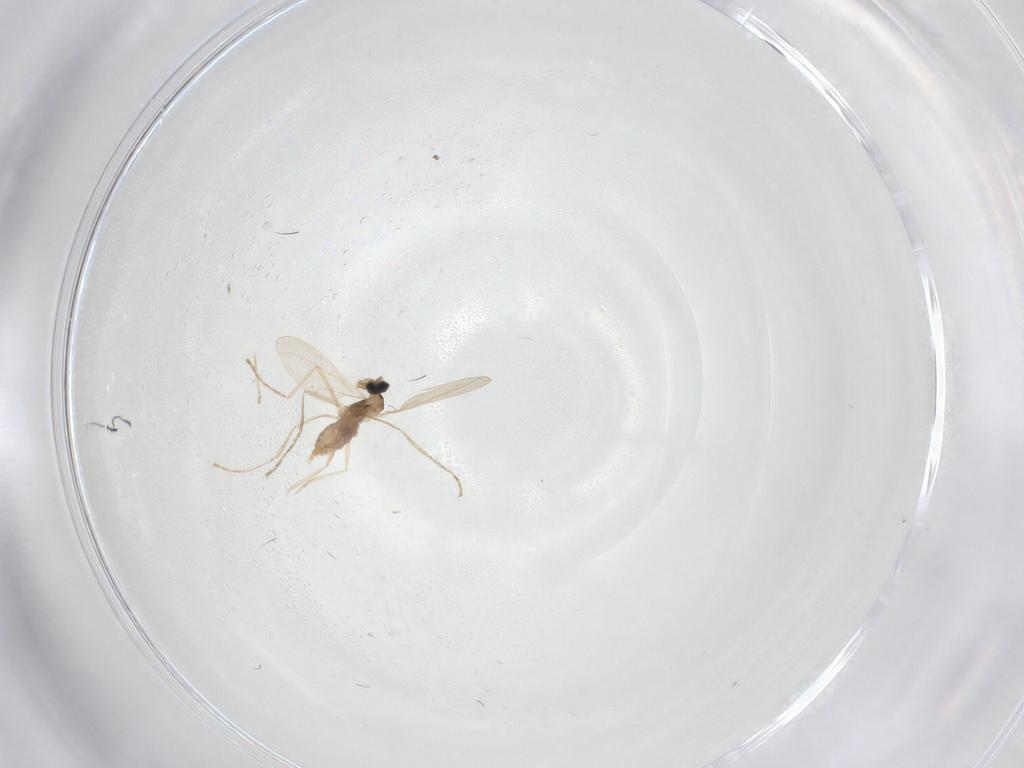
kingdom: Animalia
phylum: Arthropoda
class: Insecta
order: Diptera
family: Cecidomyiidae
